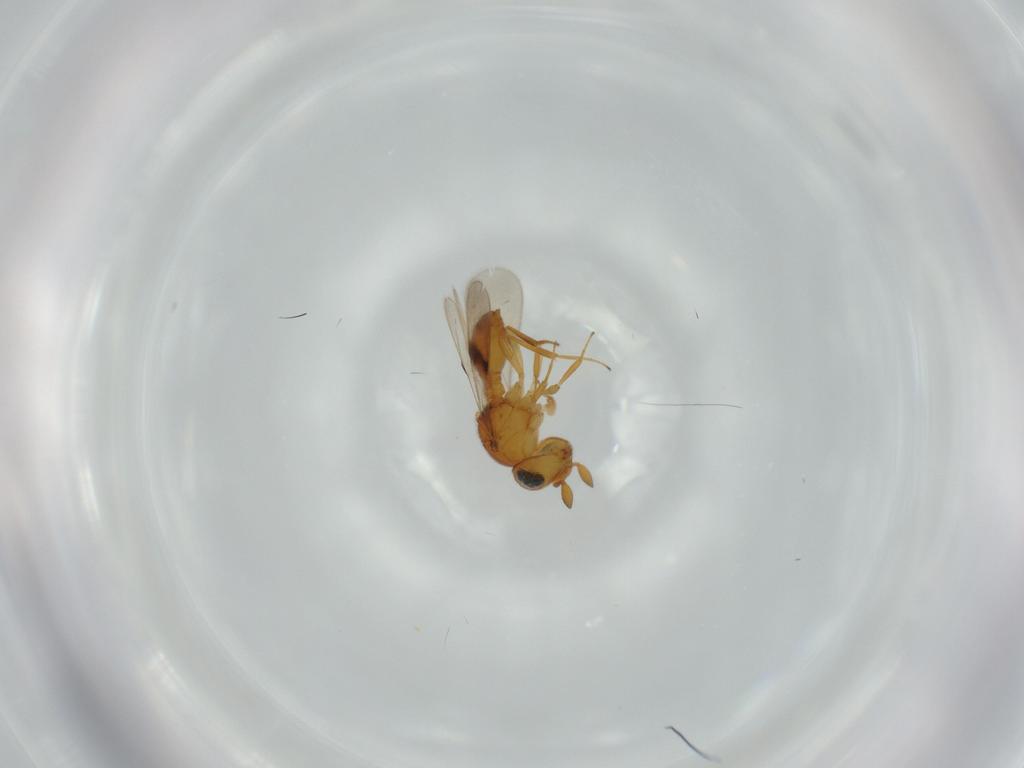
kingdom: Animalia
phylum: Arthropoda
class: Insecta
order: Hymenoptera
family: Scelionidae
